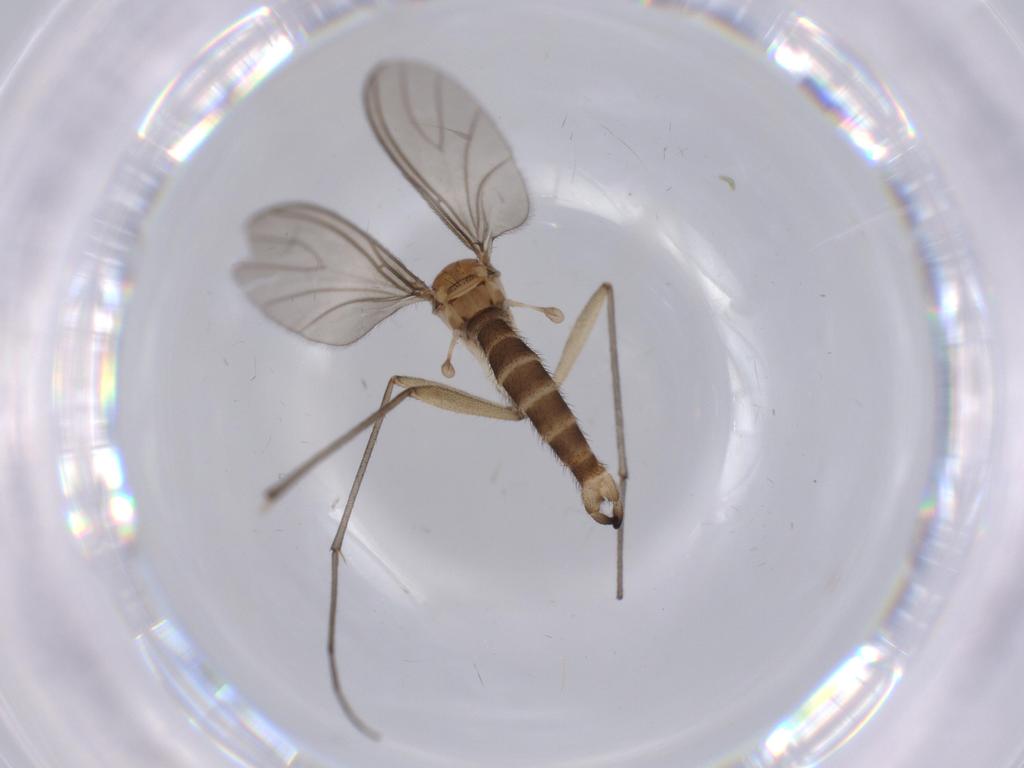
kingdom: Animalia
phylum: Arthropoda
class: Insecta
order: Diptera
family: Sciaridae
